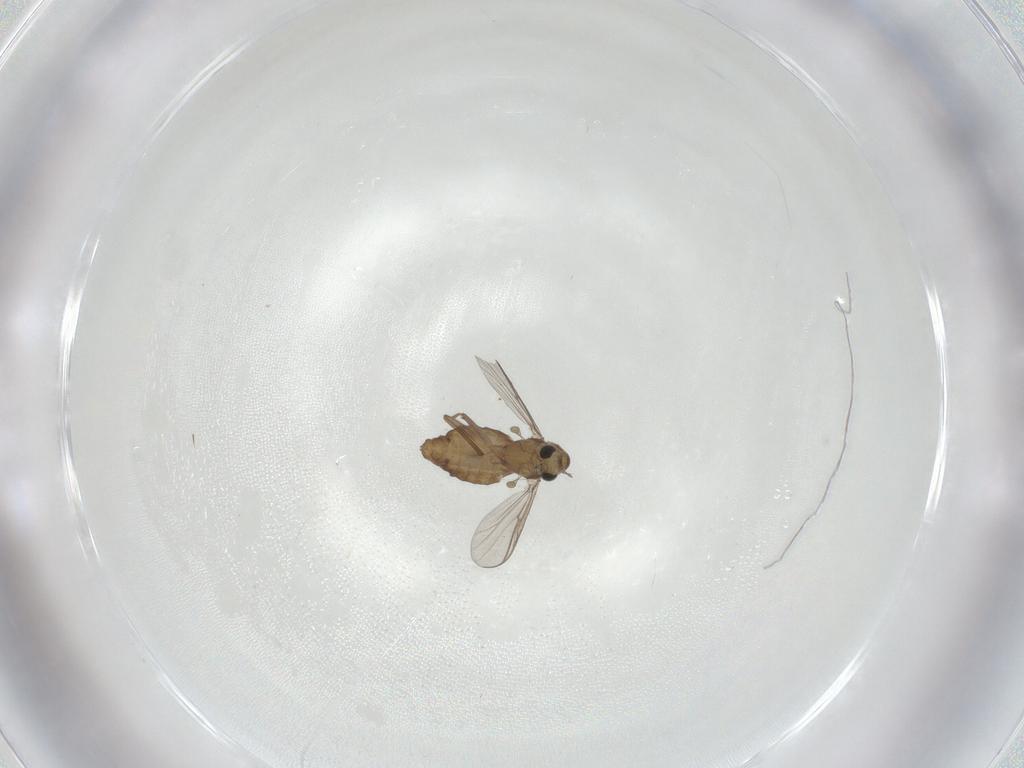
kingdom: Animalia
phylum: Arthropoda
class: Insecta
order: Diptera
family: Chironomidae
